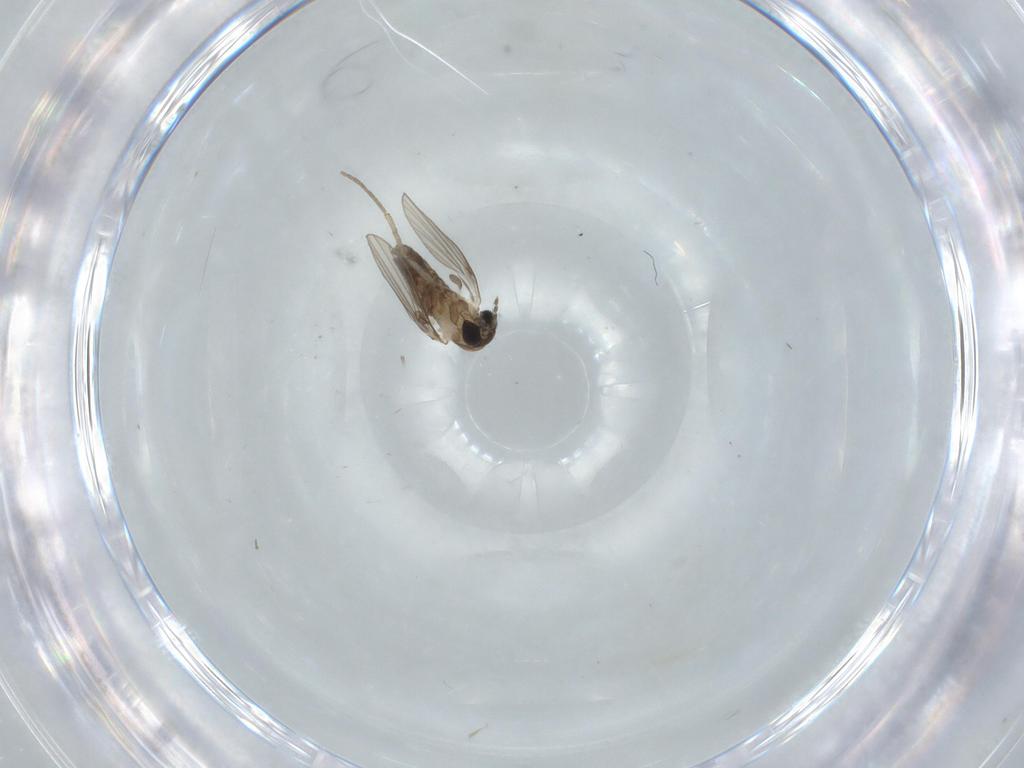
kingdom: Animalia
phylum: Arthropoda
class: Insecta
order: Diptera
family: Psychodidae
